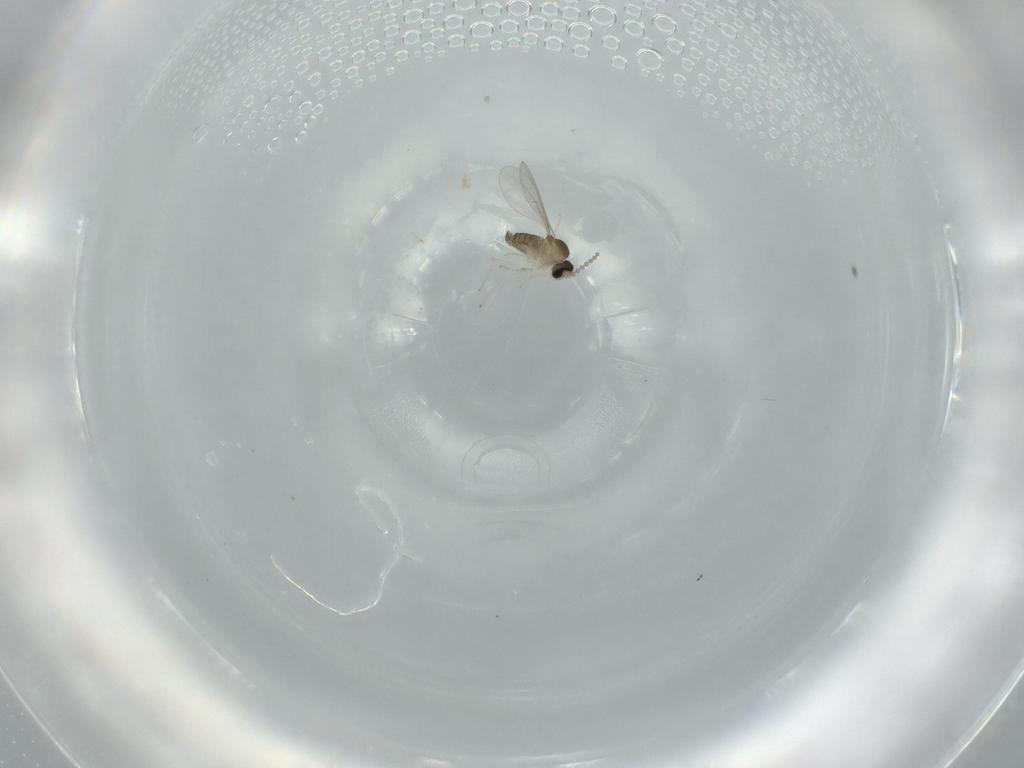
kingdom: Animalia
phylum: Arthropoda
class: Insecta
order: Diptera
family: Cecidomyiidae
